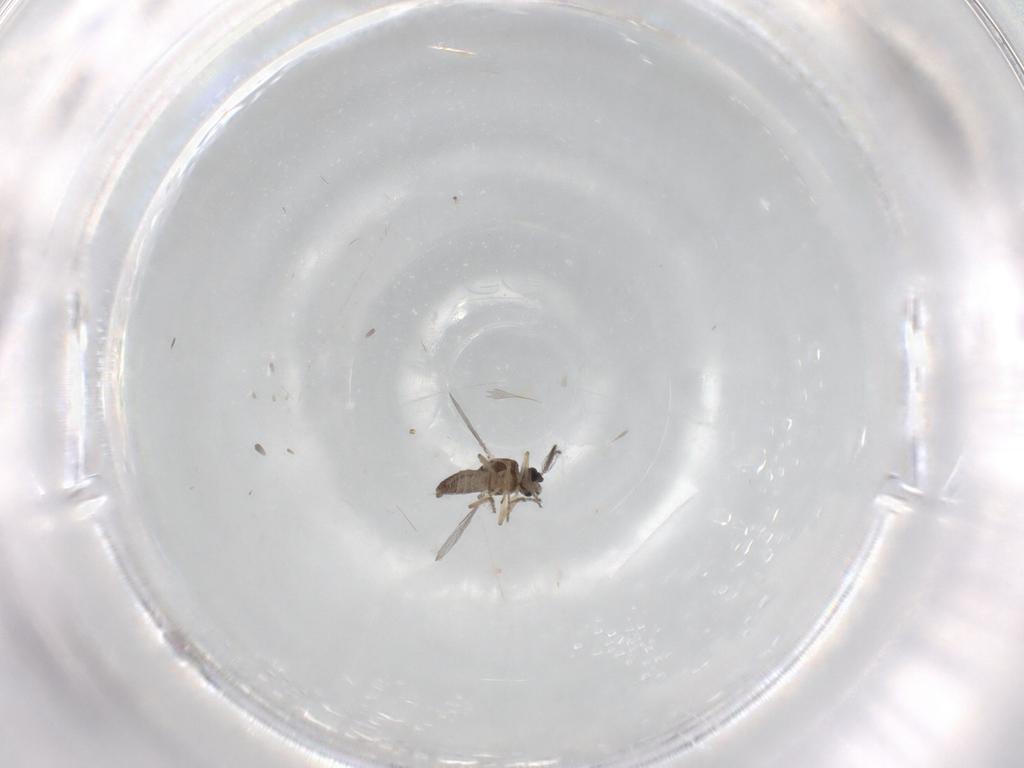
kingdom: Animalia
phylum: Arthropoda
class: Insecta
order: Diptera
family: Ceratopogonidae
